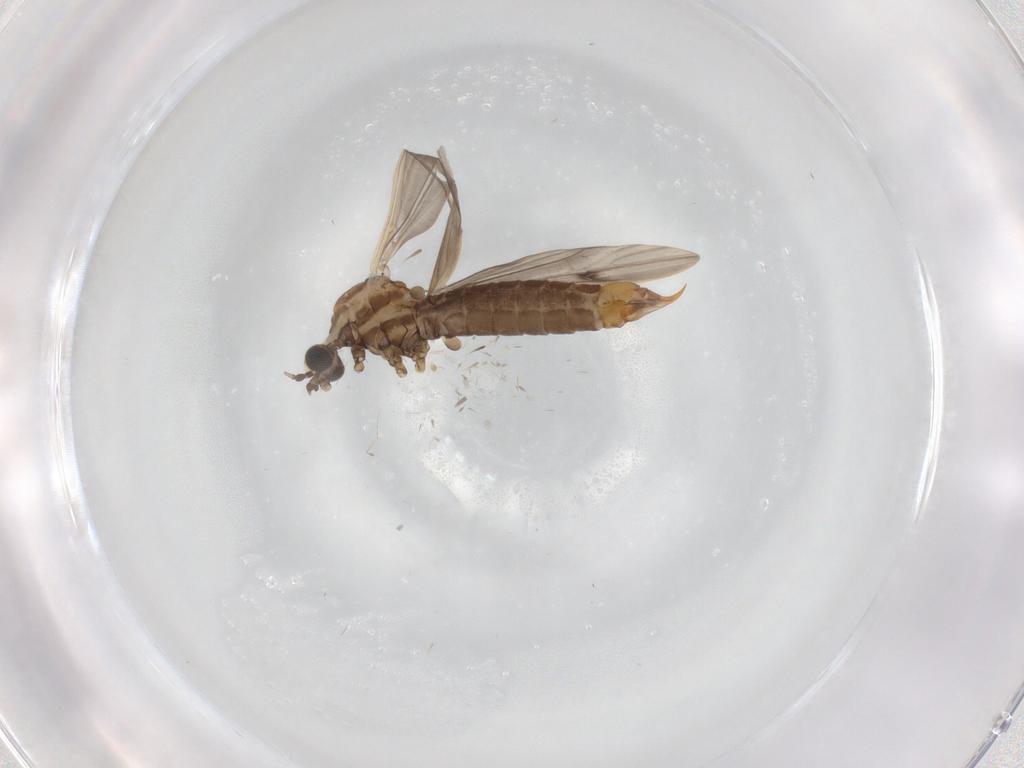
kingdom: Animalia
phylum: Arthropoda
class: Insecta
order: Diptera
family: Limoniidae
